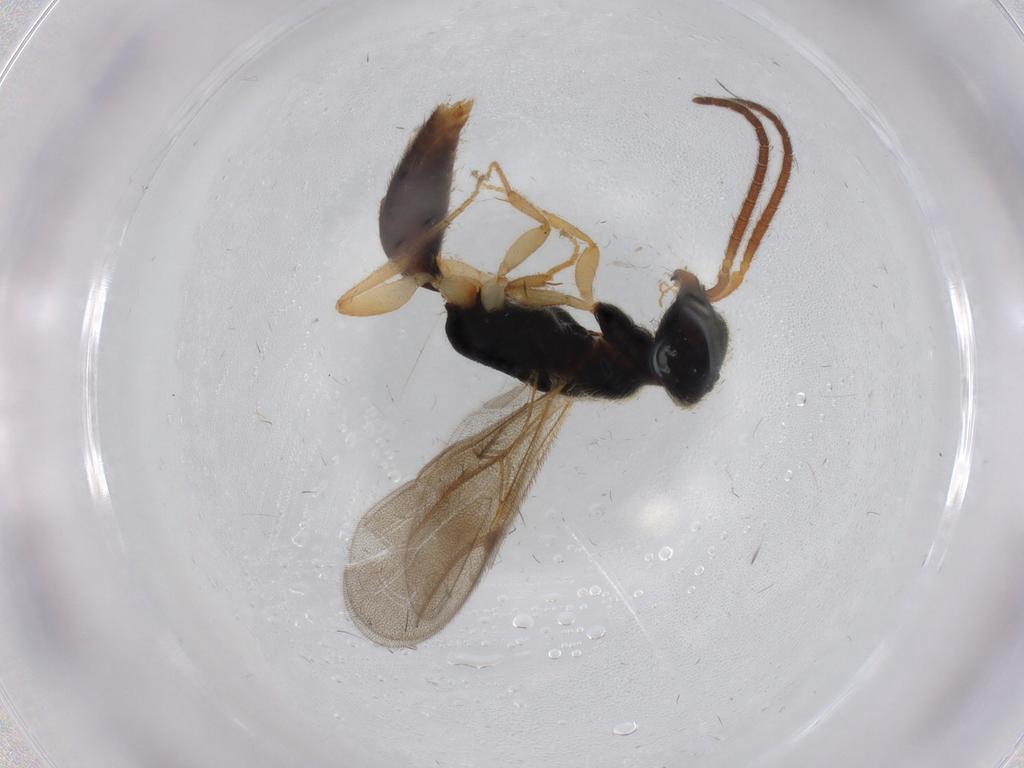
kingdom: Animalia
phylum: Arthropoda
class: Insecta
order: Hymenoptera
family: Bethylidae
